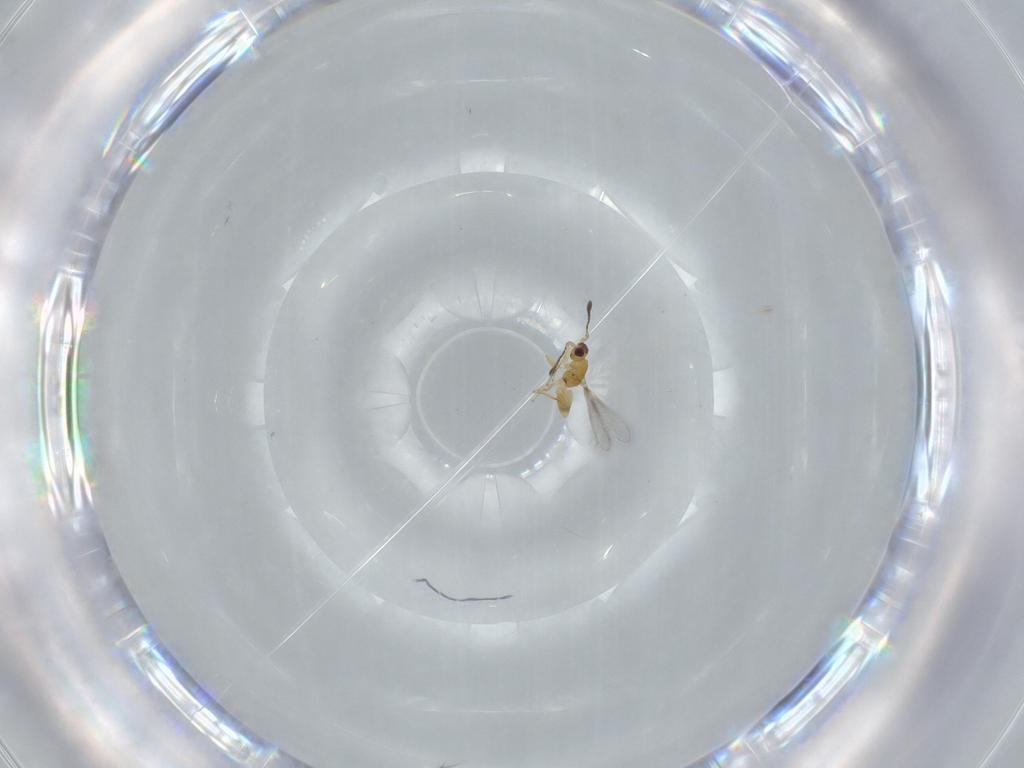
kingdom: Animalia
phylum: Arthropoda
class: Insecta
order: Hymenoptera
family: Mymaridae
